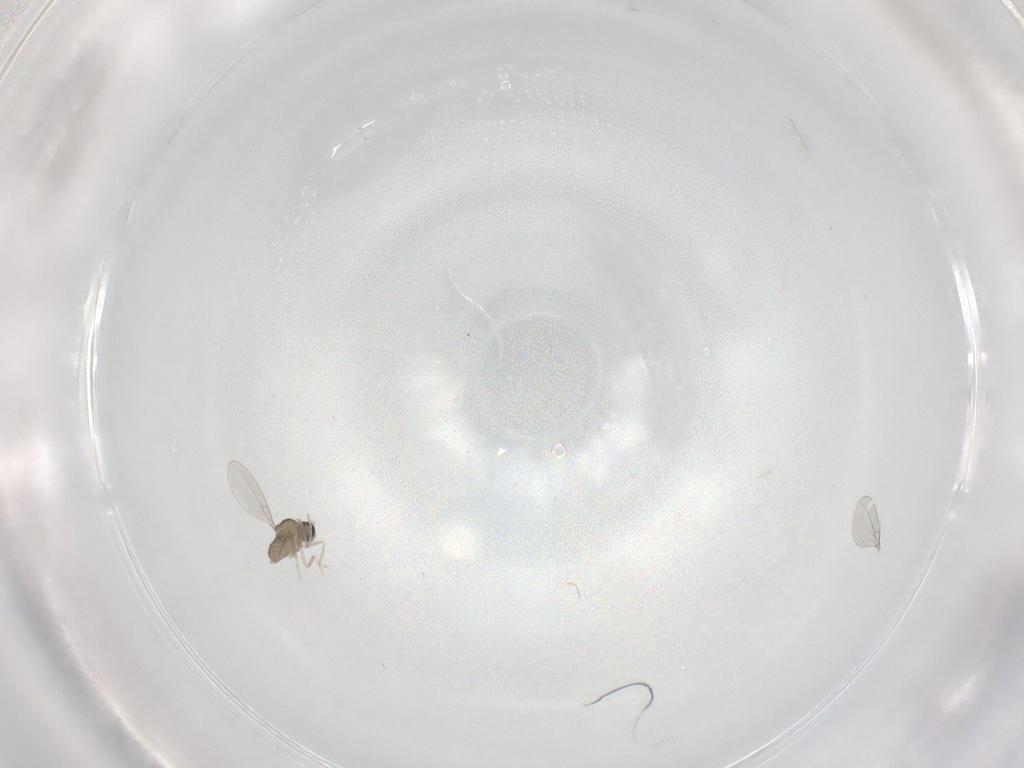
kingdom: Animalia
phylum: Arthropoda
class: Insecta
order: Diptera
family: Cecidomyiidae
